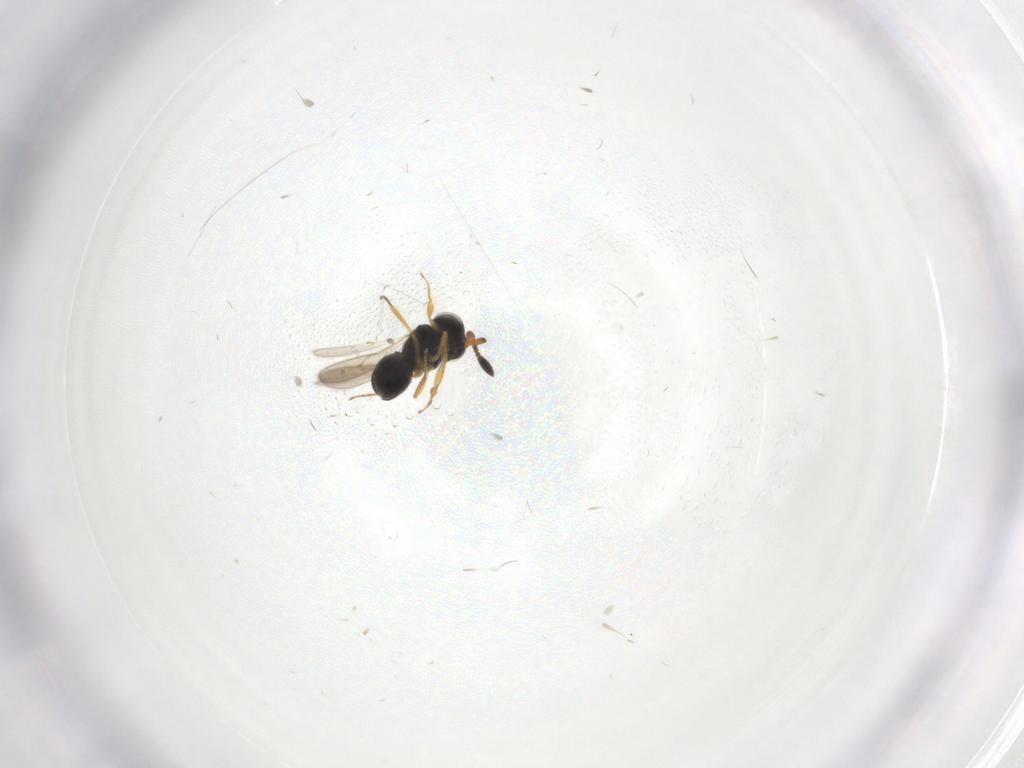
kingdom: Animalia
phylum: Arthropoda
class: Insecta
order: Hymenoptera
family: Scelionidae
